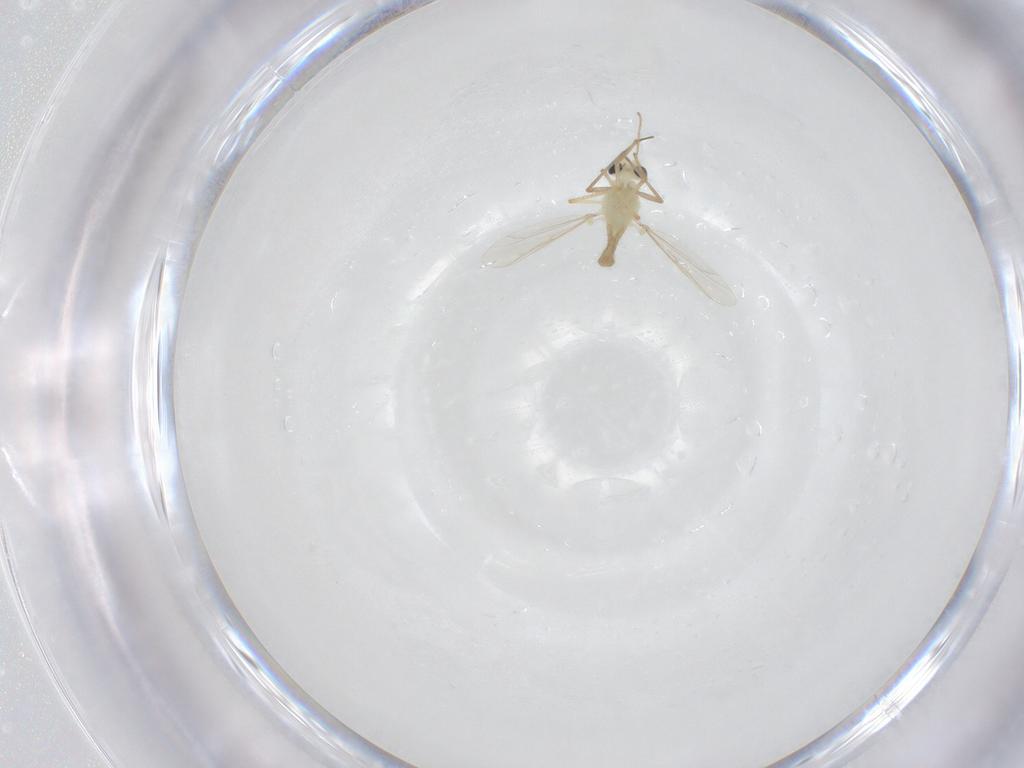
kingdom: Animalia
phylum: Arthropoda
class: Insecta
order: Diptera
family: Chironomidae
